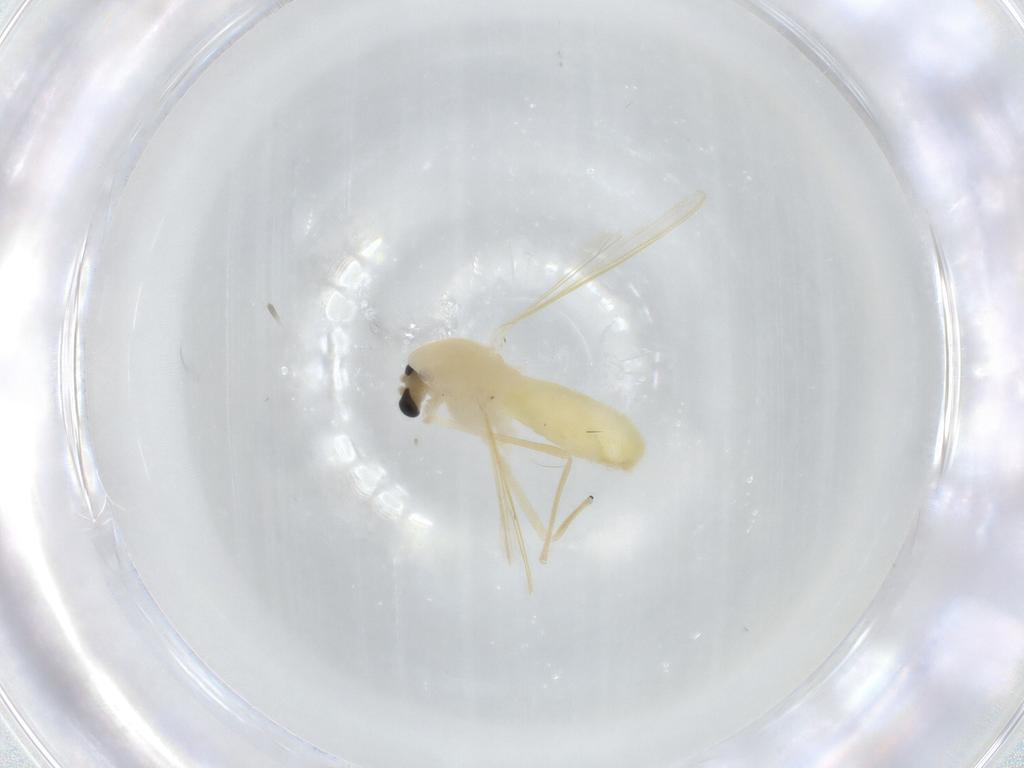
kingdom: Animalia
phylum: Arthropoda
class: Insecta
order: Diptera
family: Chironomidae
